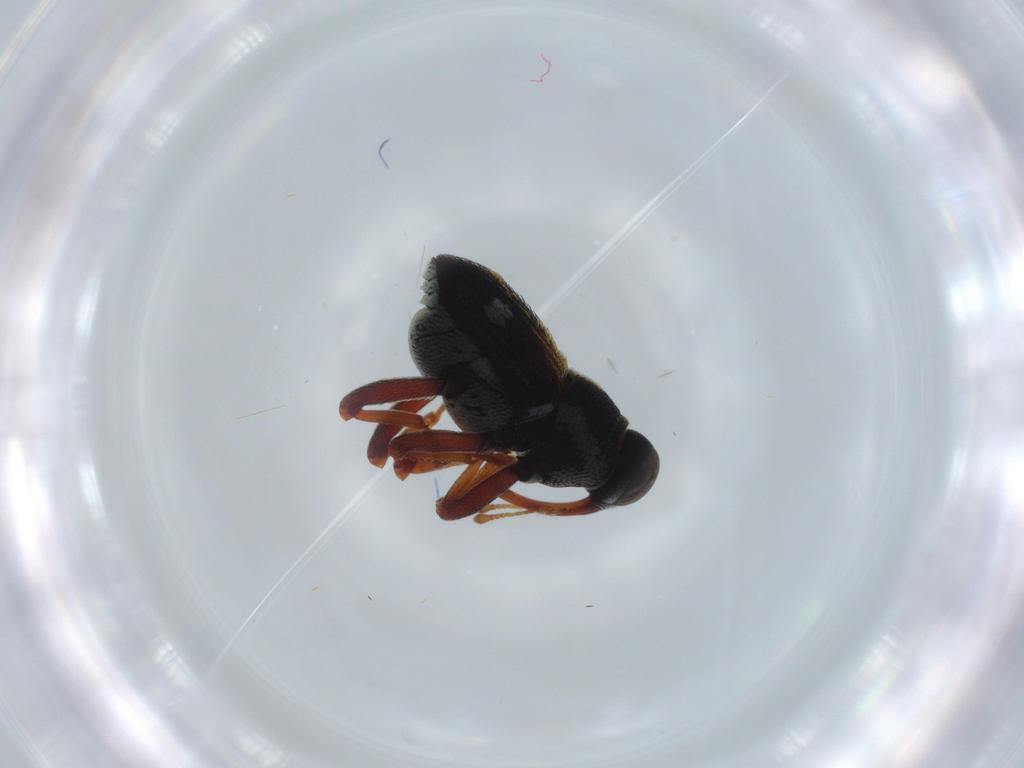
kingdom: Animalia
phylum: Arthropoda
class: Insecta
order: Coleoptera
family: Curculionidae
